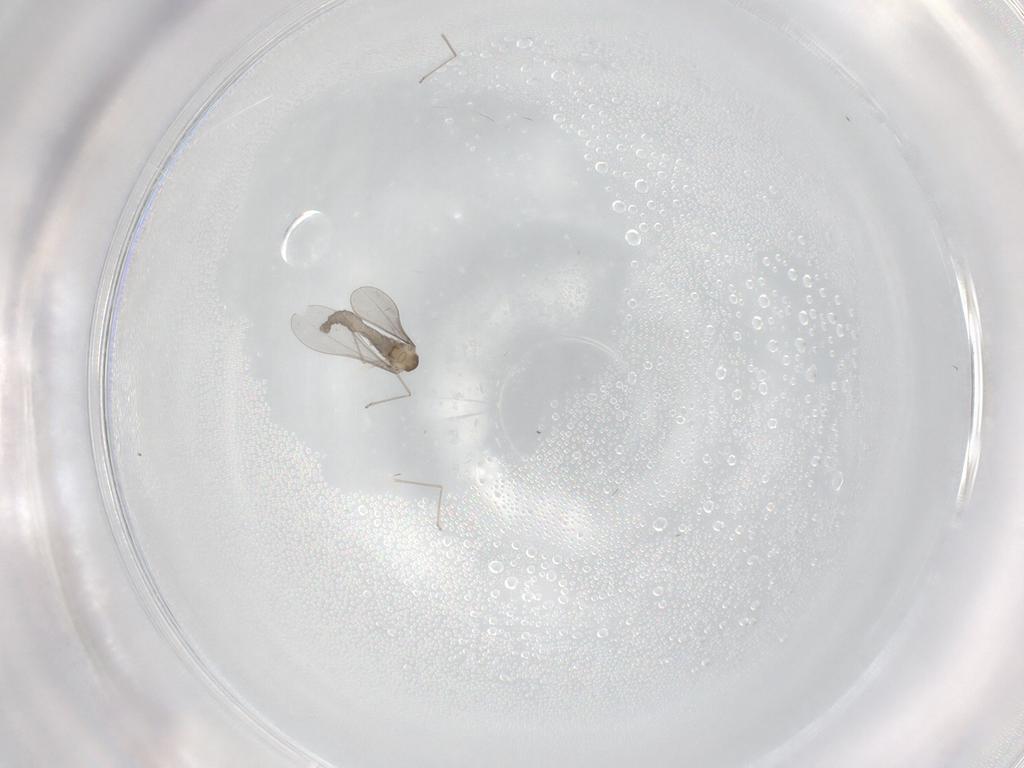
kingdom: Animalia
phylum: Arthropoda
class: Insecta
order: Diptera
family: Cecidomyiidae
